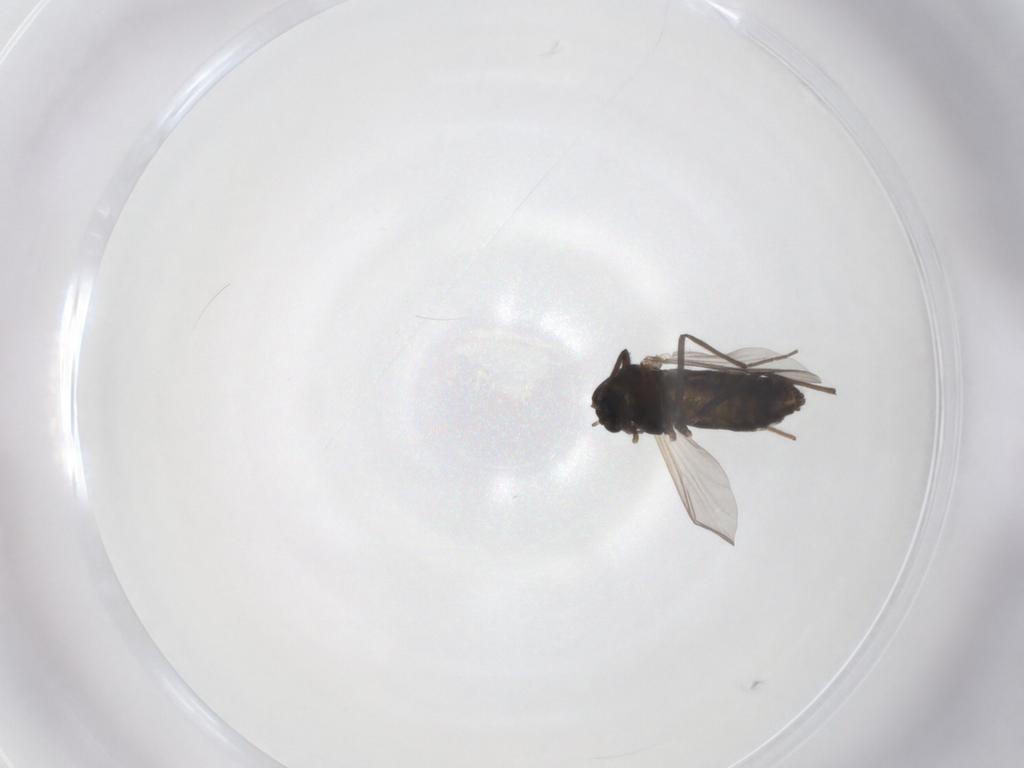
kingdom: Animalia
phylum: Arthropoda
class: Insecta
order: Diptera
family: Chironomidae
